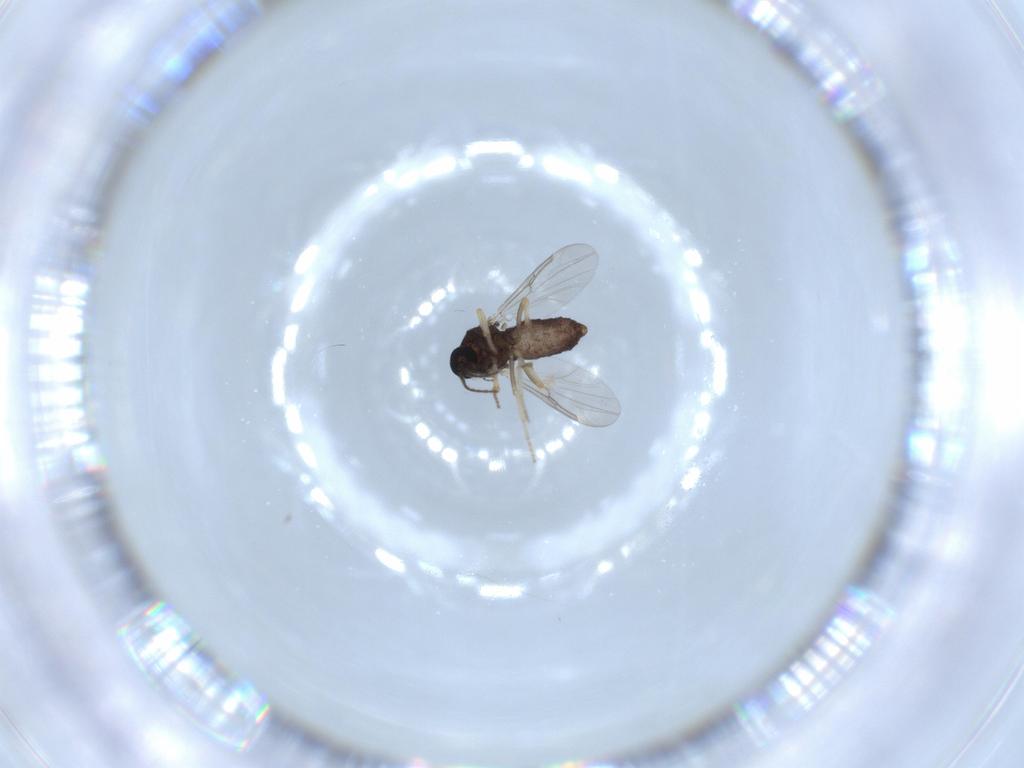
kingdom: Animalia
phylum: Arthropoda
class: Insecta
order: Diptera
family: Ceratopogonidae
